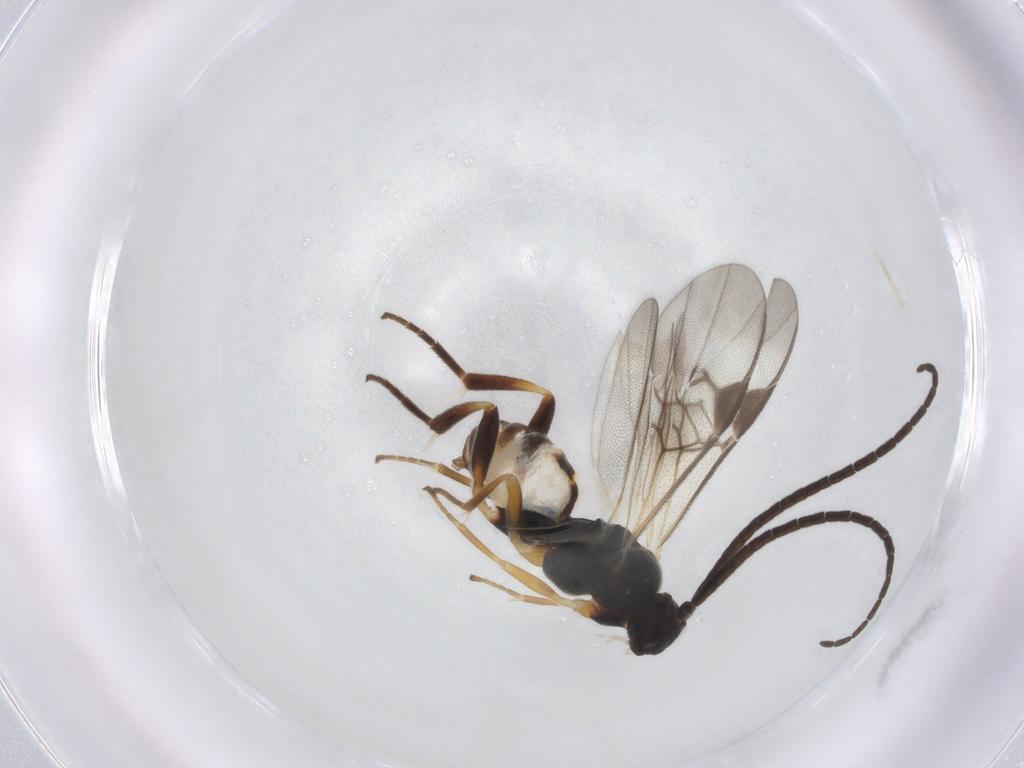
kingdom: Animalia
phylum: Arthropoda
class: Insecta
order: Hymenoptera
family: Braconidae
